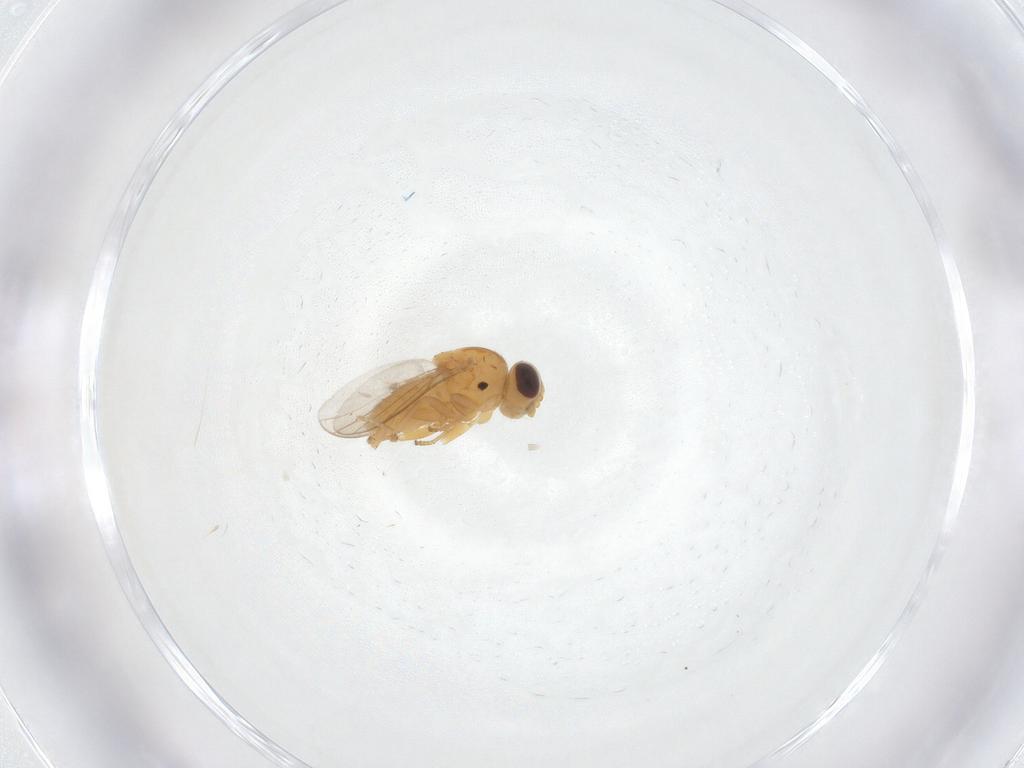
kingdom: Animalia
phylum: Arthropoda
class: Insecta
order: Diptera
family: Chloropidae
